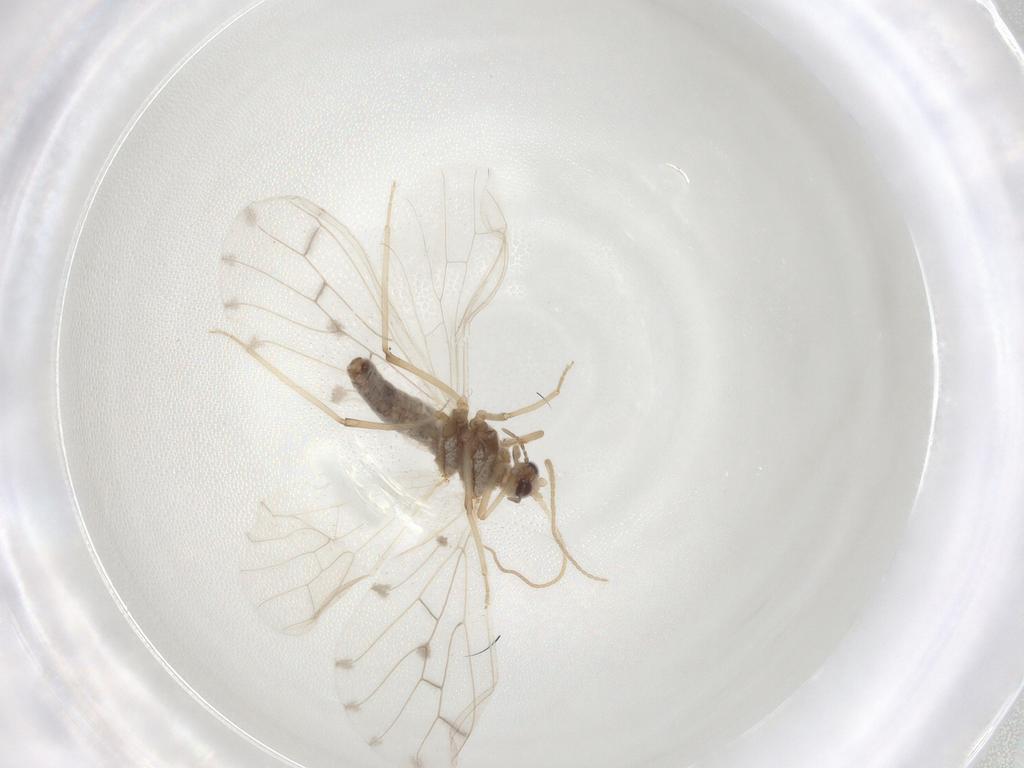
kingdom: Animalia
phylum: Arthropoda
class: Insecta
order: Neuroptera
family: Coniopterygidae
